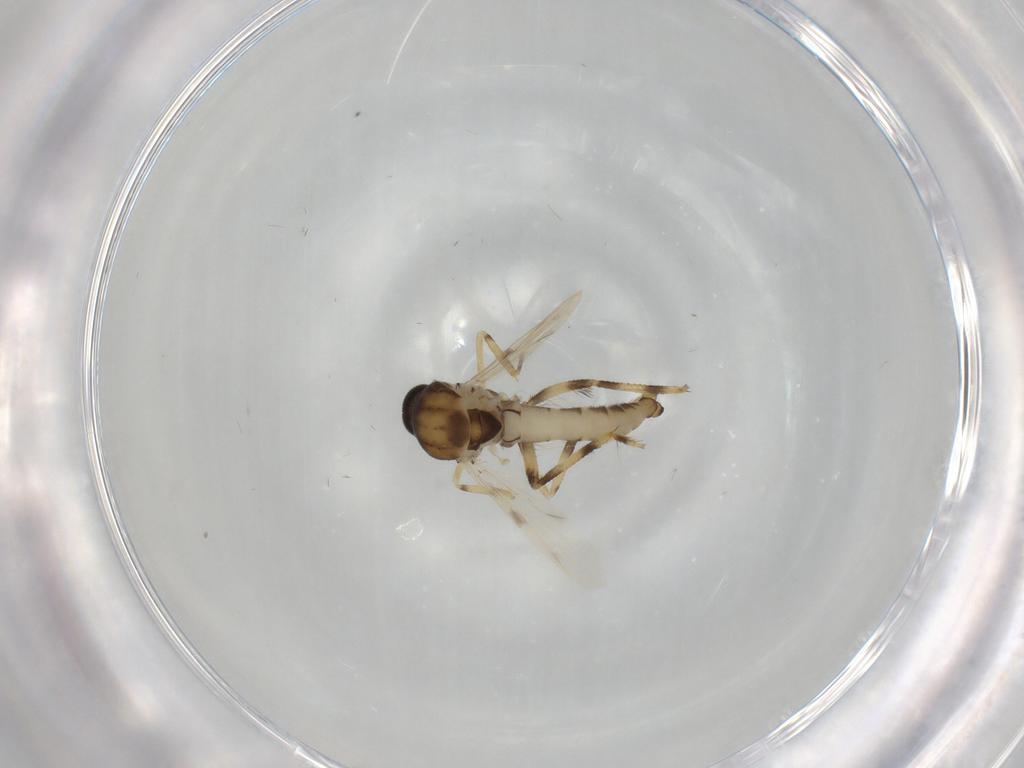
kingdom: Animalia
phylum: Arthropoda
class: Insecta
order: Diptera
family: Ceratopogonidae
